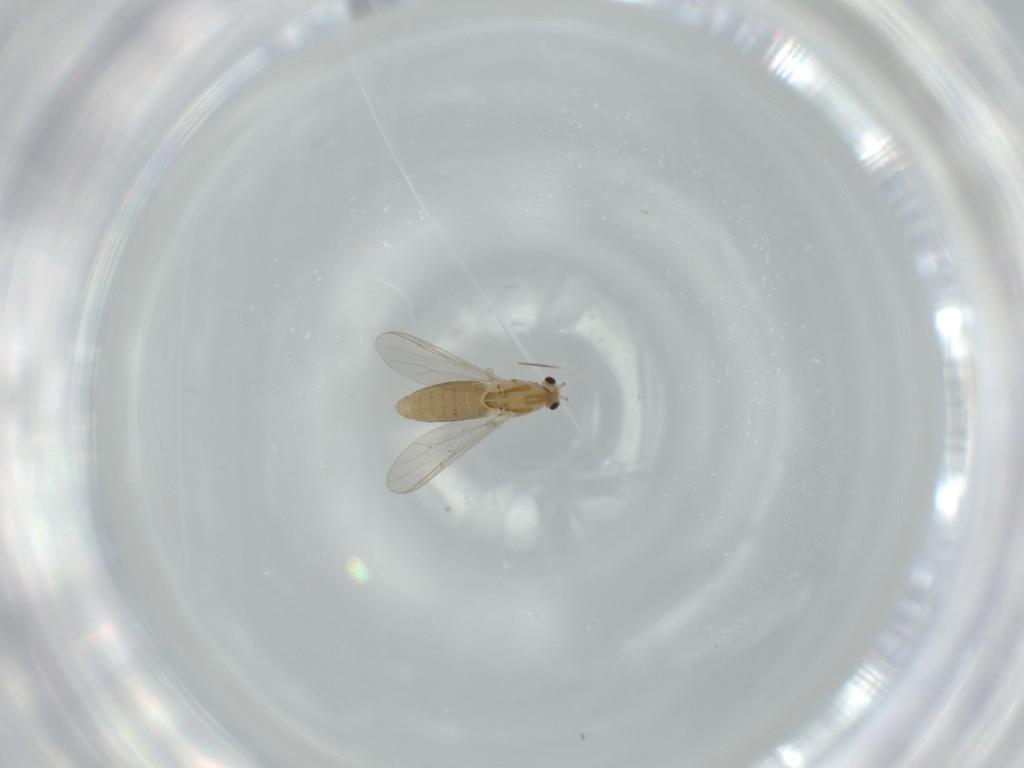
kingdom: Animalia
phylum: Arthropoda
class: Insecta
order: Diptera
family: Chironomidae
